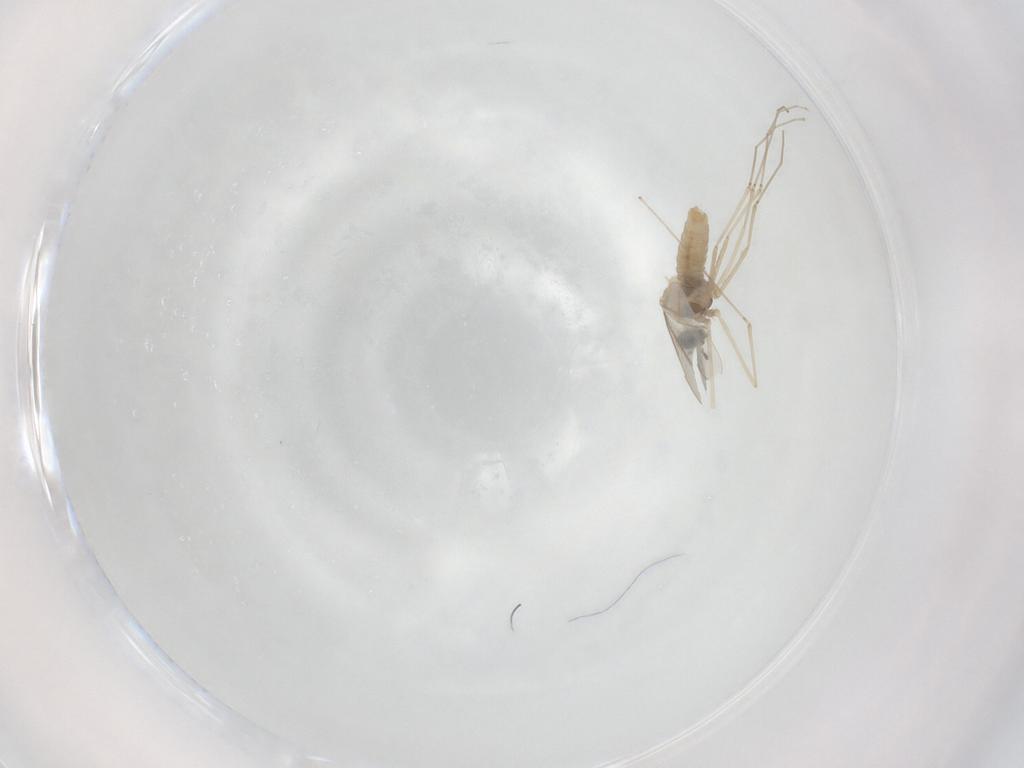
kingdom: Animalia
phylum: Arthropoda
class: Insecta
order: Diptera
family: Cecidomyiidae
